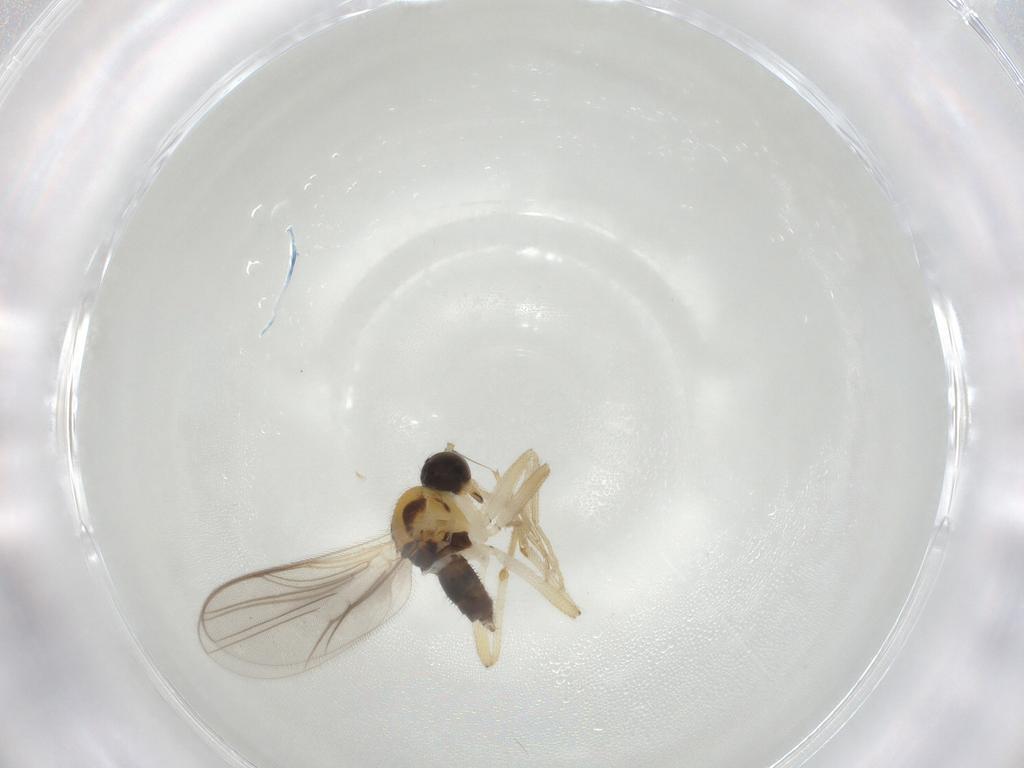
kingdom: Animalia
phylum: Arthropoda
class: Insecta
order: Diptera
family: Hybotidae
